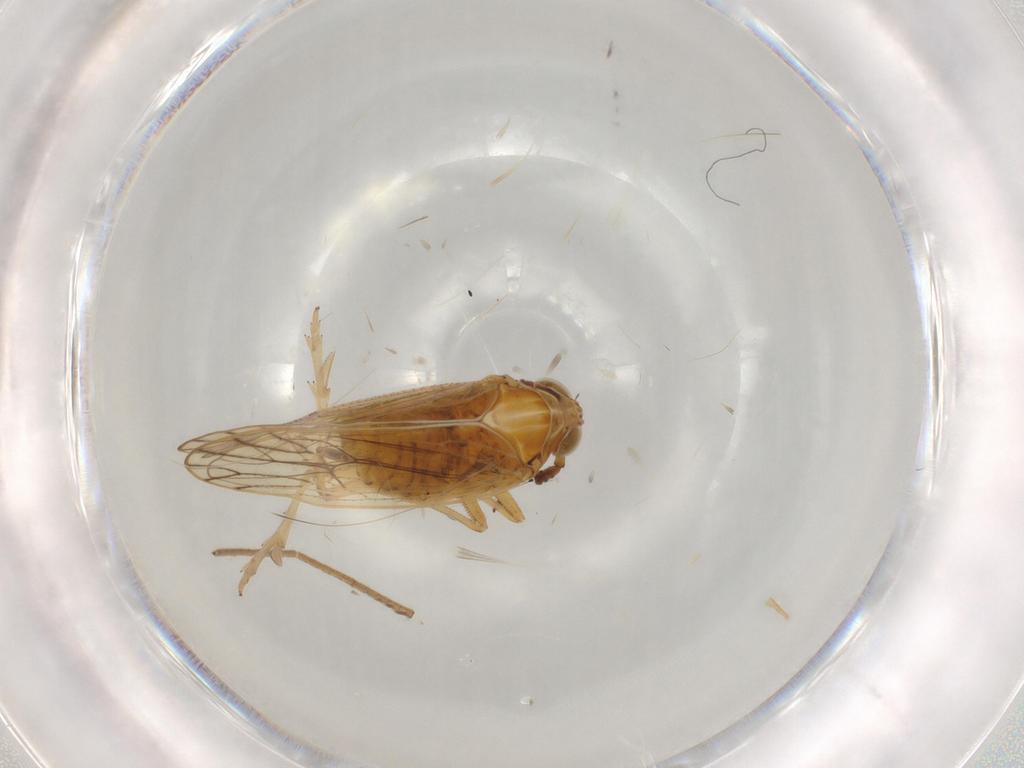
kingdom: Animalia
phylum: Arthropoda
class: Insecta
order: Hemiptera
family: Delphacidae
